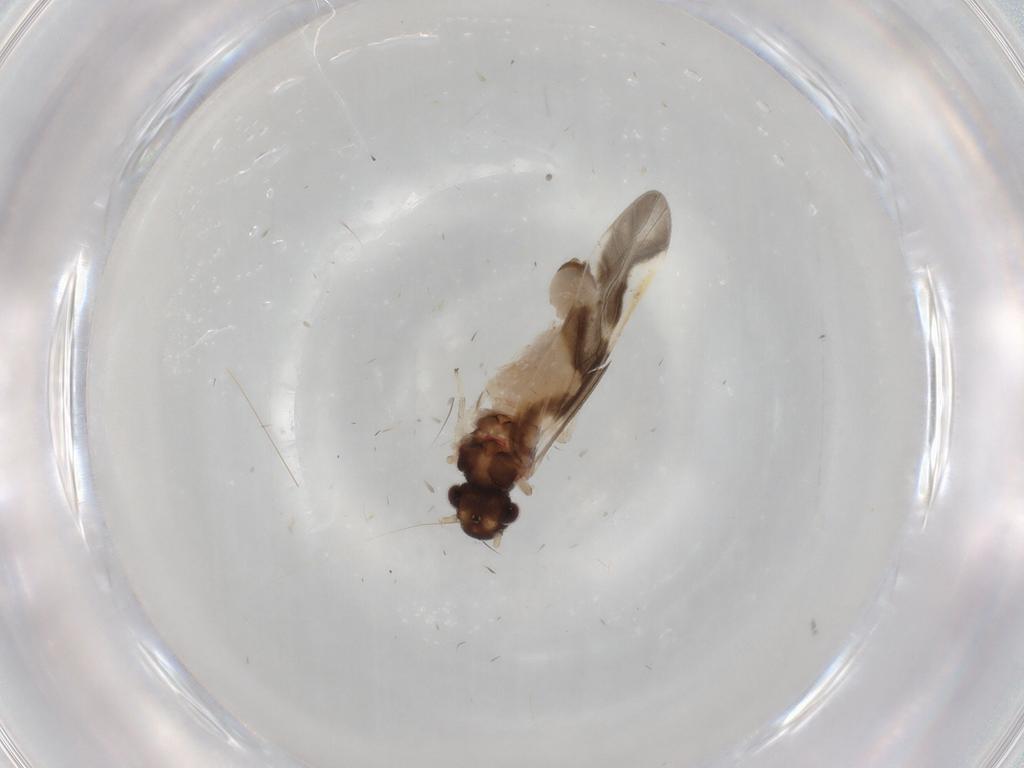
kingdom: Animalia
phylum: Arthropoda
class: Insecta
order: Psocodea
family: Caeciliusidae
